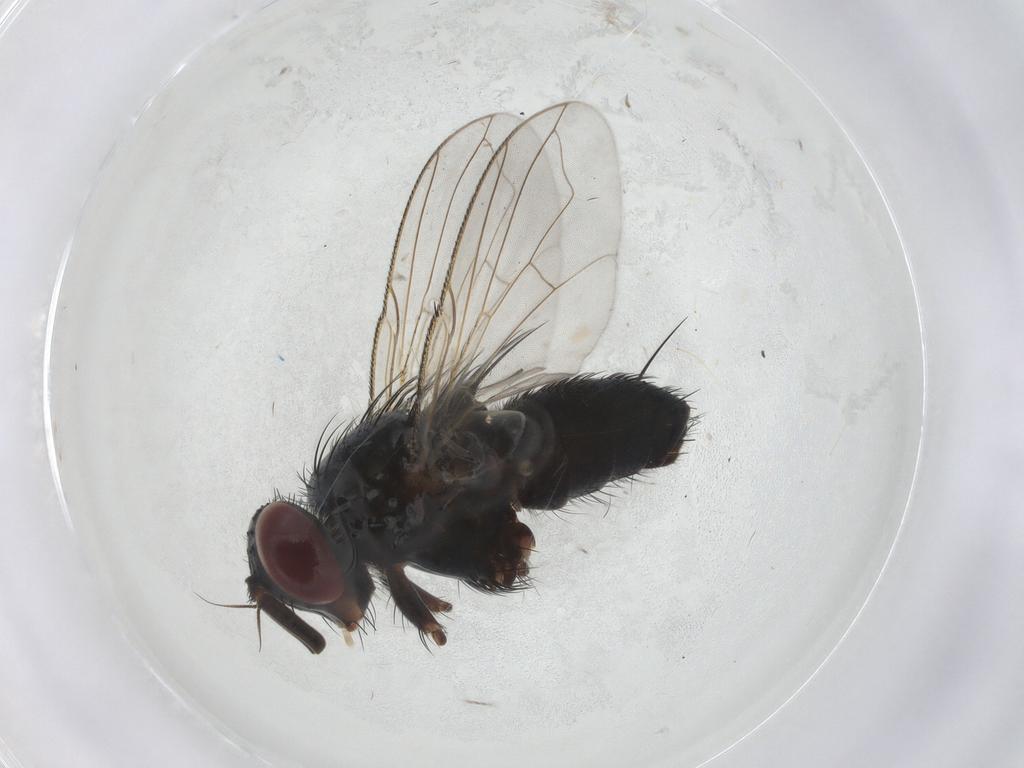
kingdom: Animalia
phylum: Arthropoda
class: Insecta
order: Diptera
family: Tachinidae
